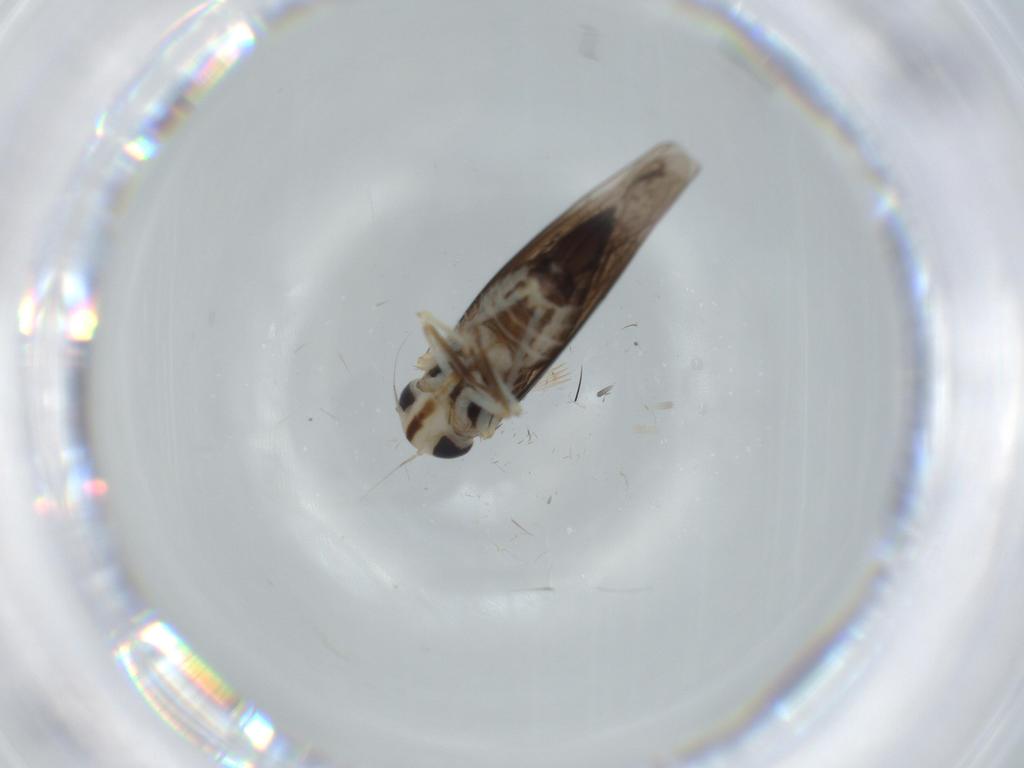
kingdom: Animalia
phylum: Arthropoda
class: Insecta
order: Hemiptera
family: Cicadellidae
